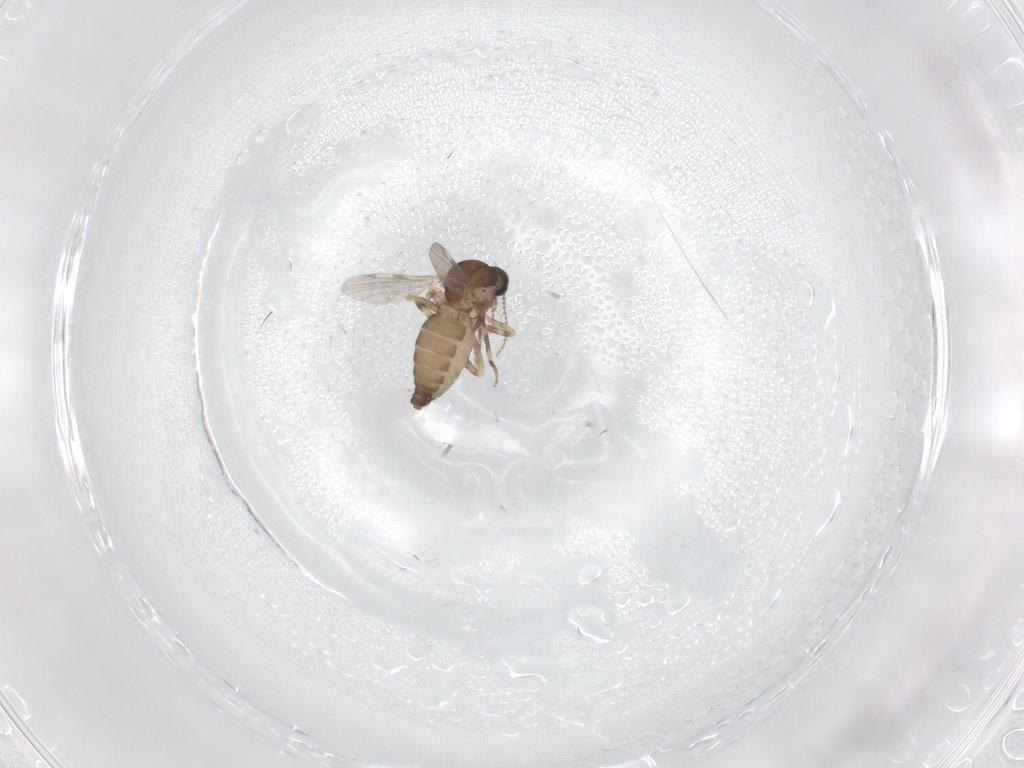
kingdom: Animalia
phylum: Arthropoda
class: Insecta
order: Diptera
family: Ceratopogonidae
